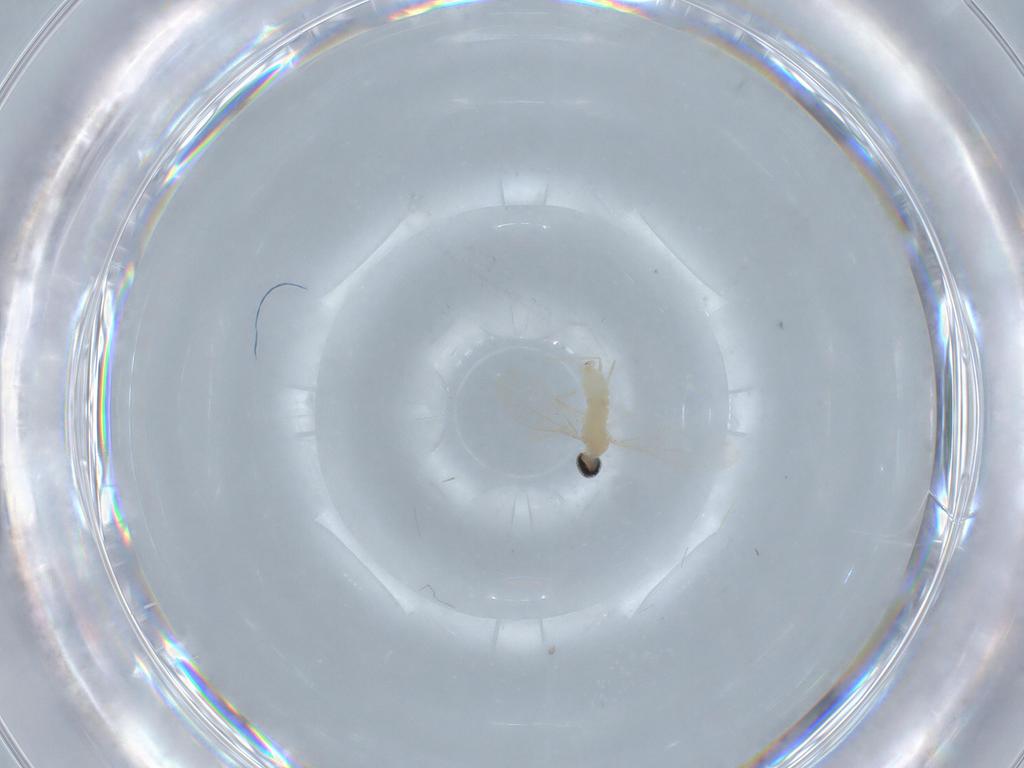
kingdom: Animalia
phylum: Arthropoda
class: Insecta
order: Diptera
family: Cecidomyiidae
